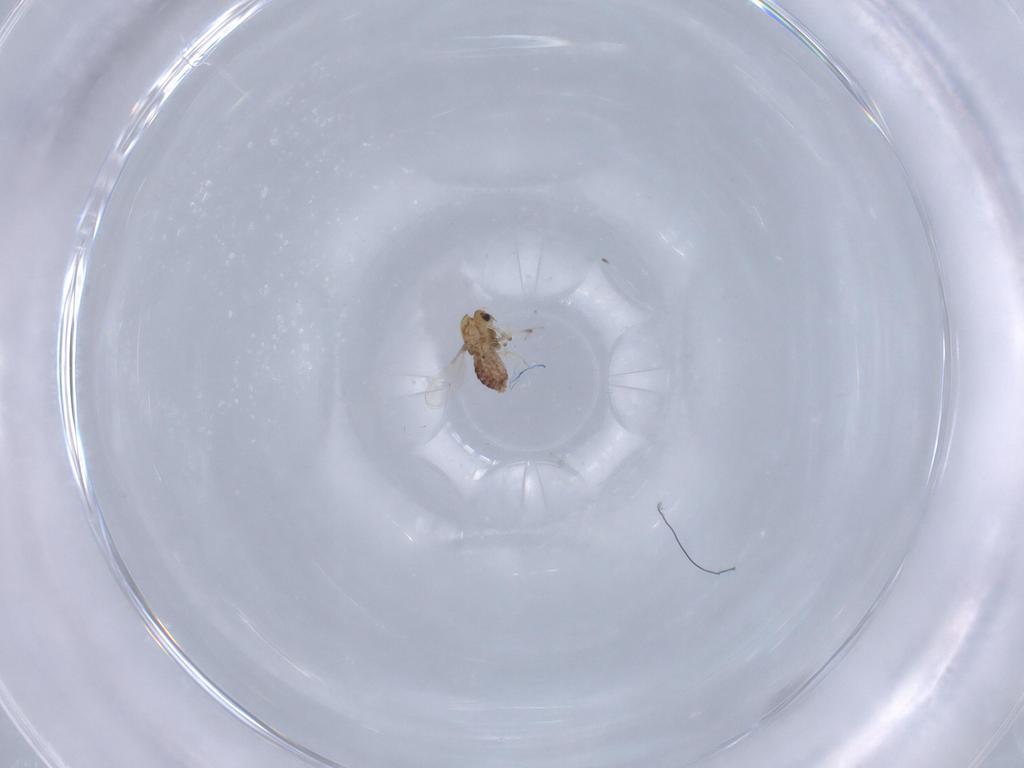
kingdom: Animalia
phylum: Arthropoda
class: Insecta
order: Diptera
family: Chironomidae
